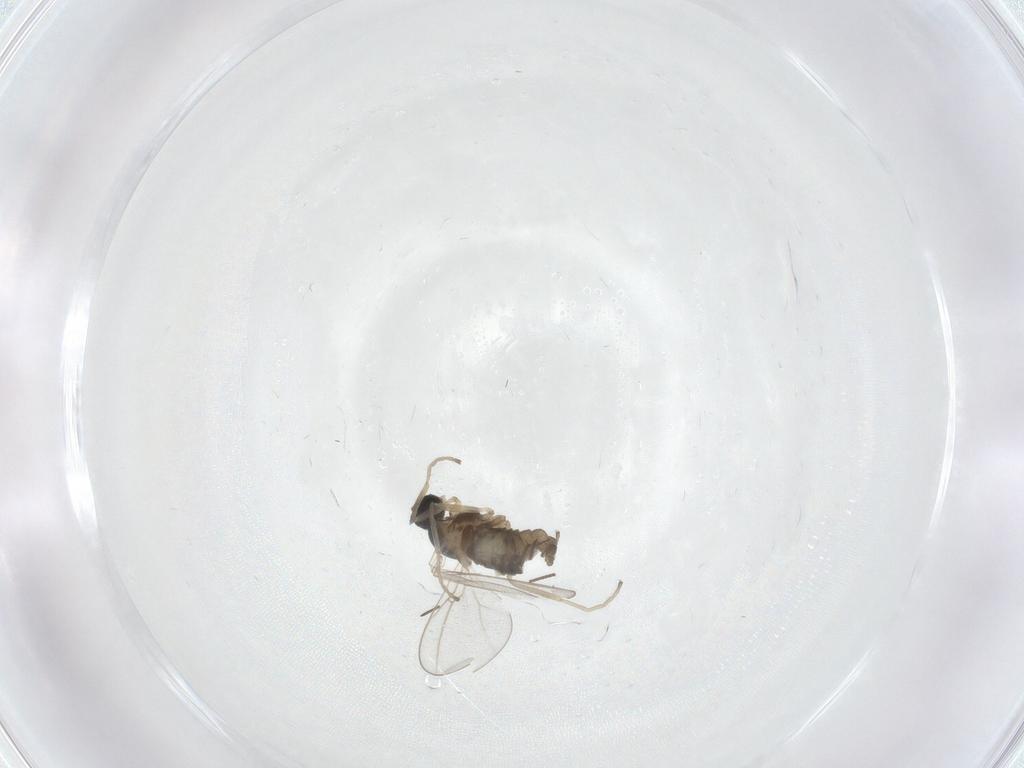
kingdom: Animalia
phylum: Arthropoda
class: Insecta
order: Diptera
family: Cecidomyiidae
